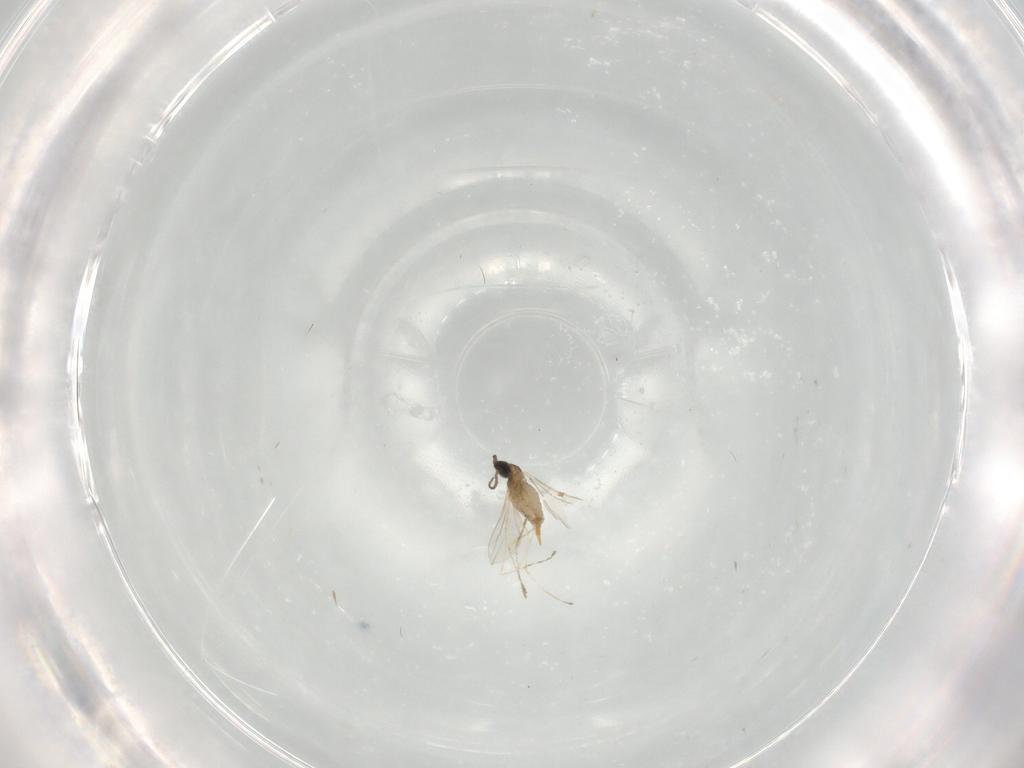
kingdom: Animalia
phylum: Arthropoda
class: Insecta
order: Diptera
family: Cecidomyiidae
